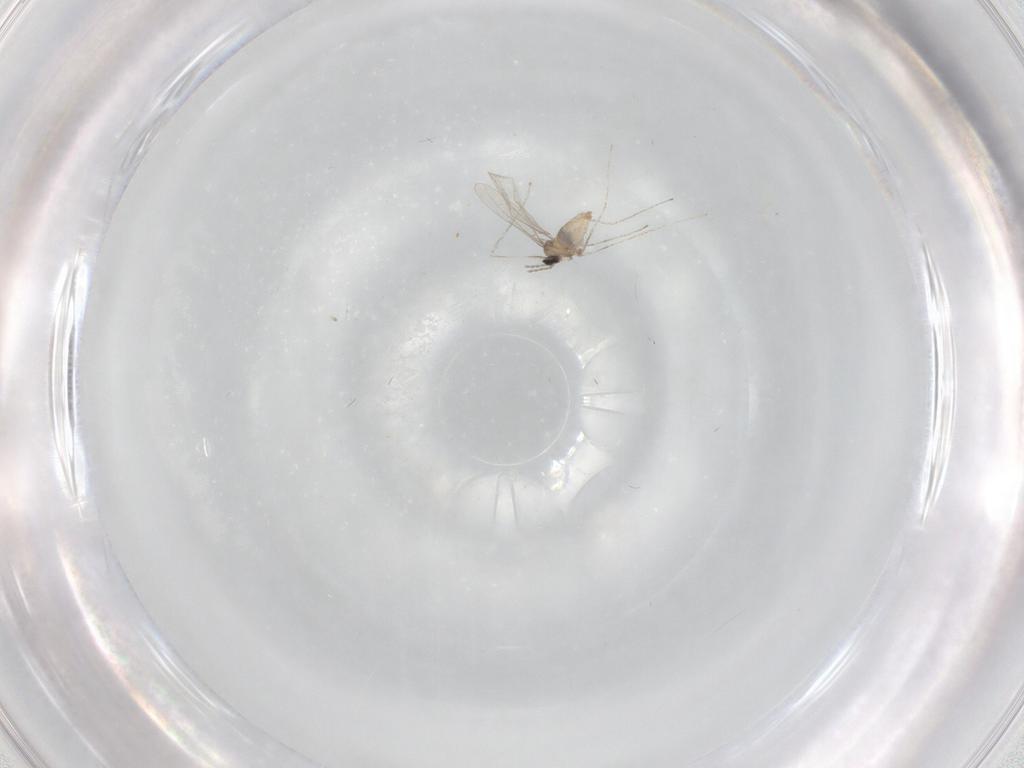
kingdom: Animalia
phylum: Arthropoda
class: Insecta
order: Diptera
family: Cecidomyiidae
